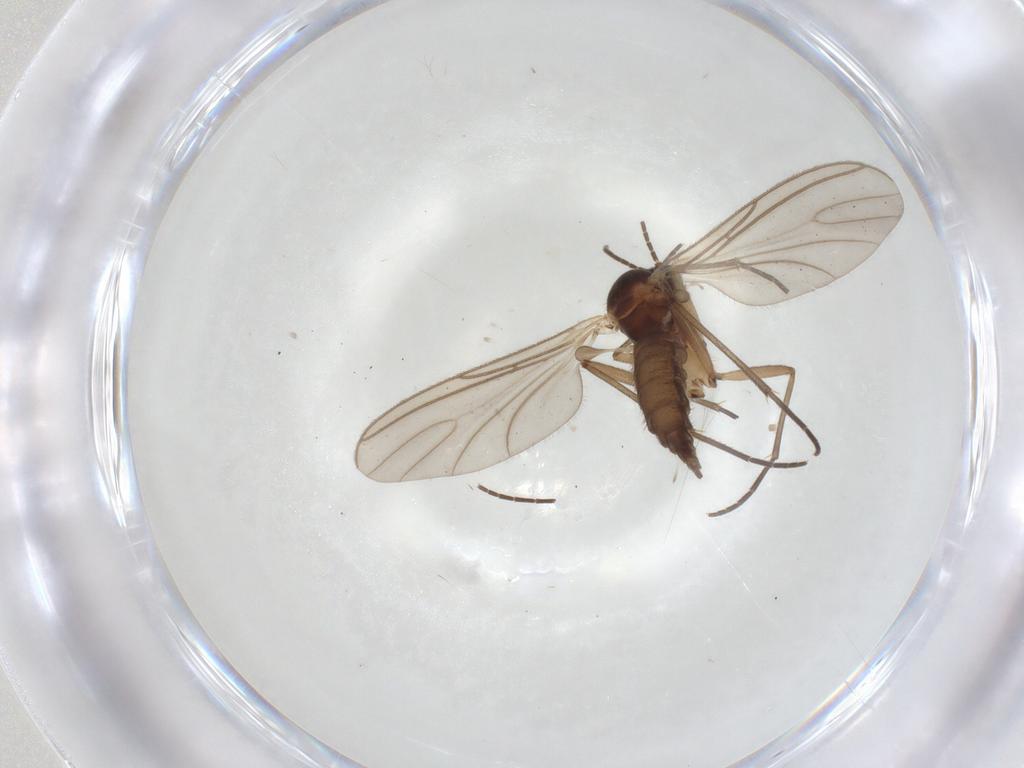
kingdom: Animalia
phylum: Arthropoda
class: Insecta
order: Diptera
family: Sciaridae
